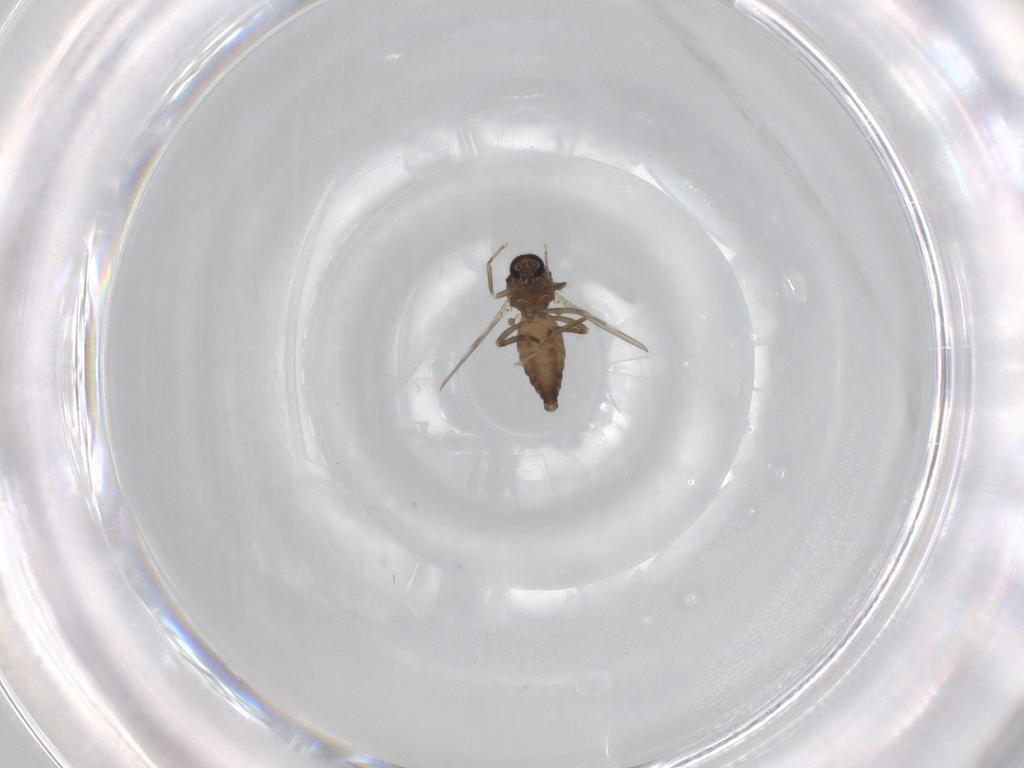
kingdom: Animalia
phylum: Arthropoda
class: Insecta
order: Diptera
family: Ceratopogonidae
